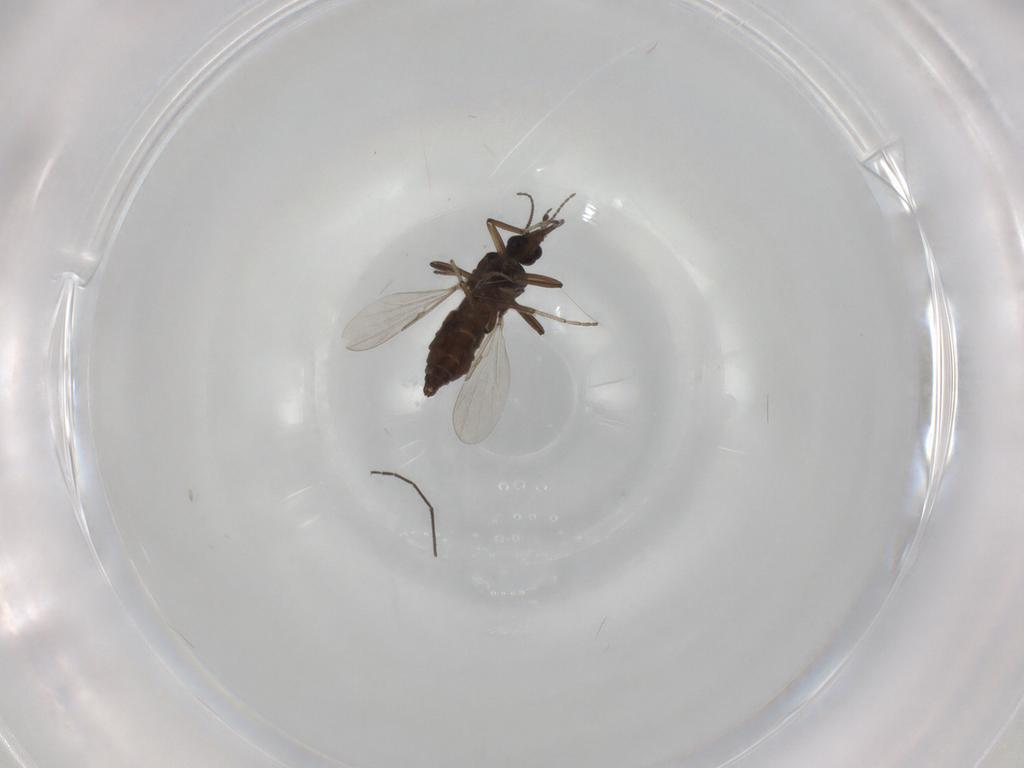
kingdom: Animalia
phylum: Arthropoda
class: Insecta
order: Diptera
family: Ceratopogonidae
